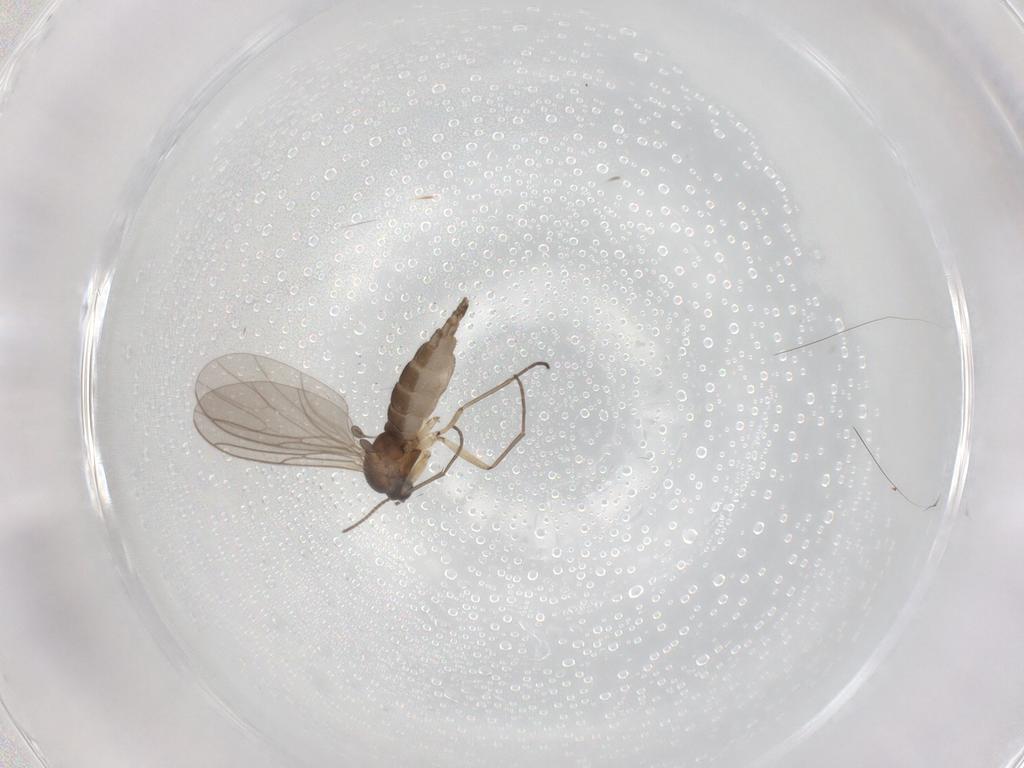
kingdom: Animalia
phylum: Arthropoda
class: Insecta
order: Diptera
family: Sciaridae
